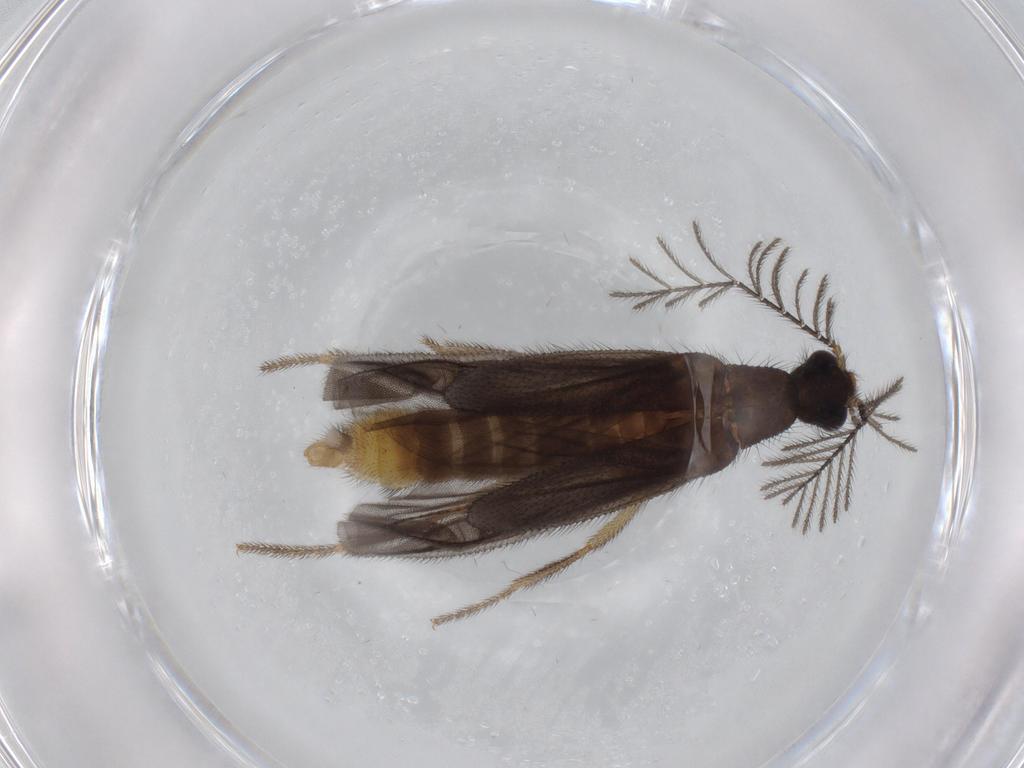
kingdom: Animalia
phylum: Arthropoda
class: Insecta
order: Coleoptera
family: Phengodidae
